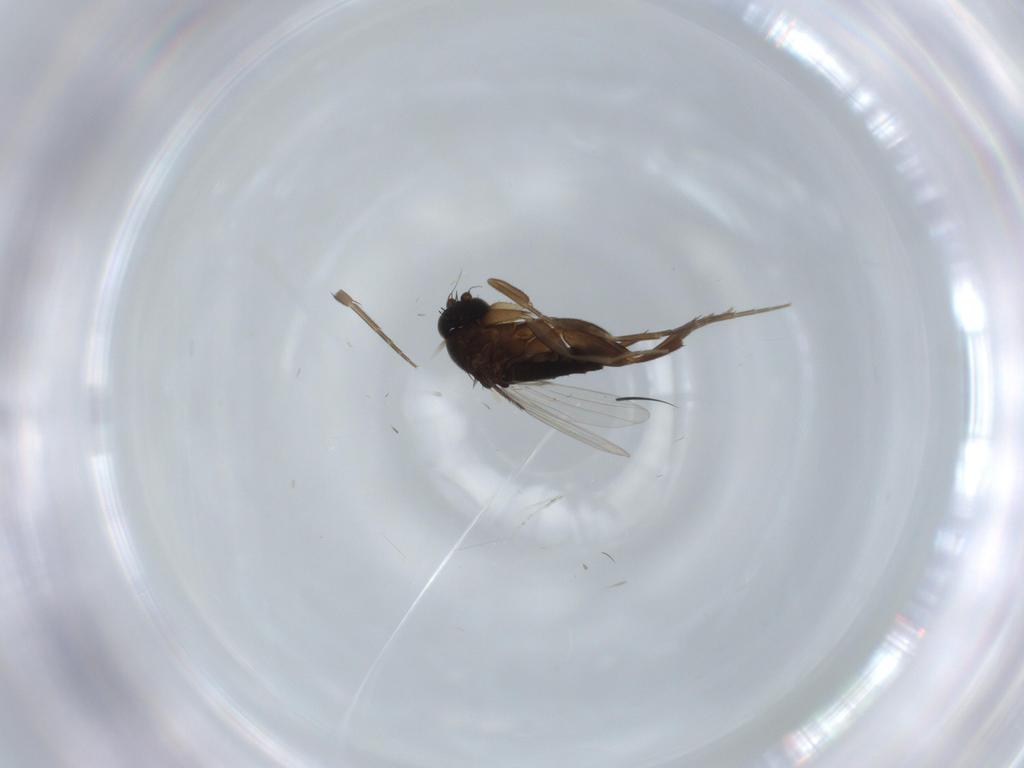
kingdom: Animalia
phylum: Arthropoda
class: Insecta
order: Diptera
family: Phoridae
